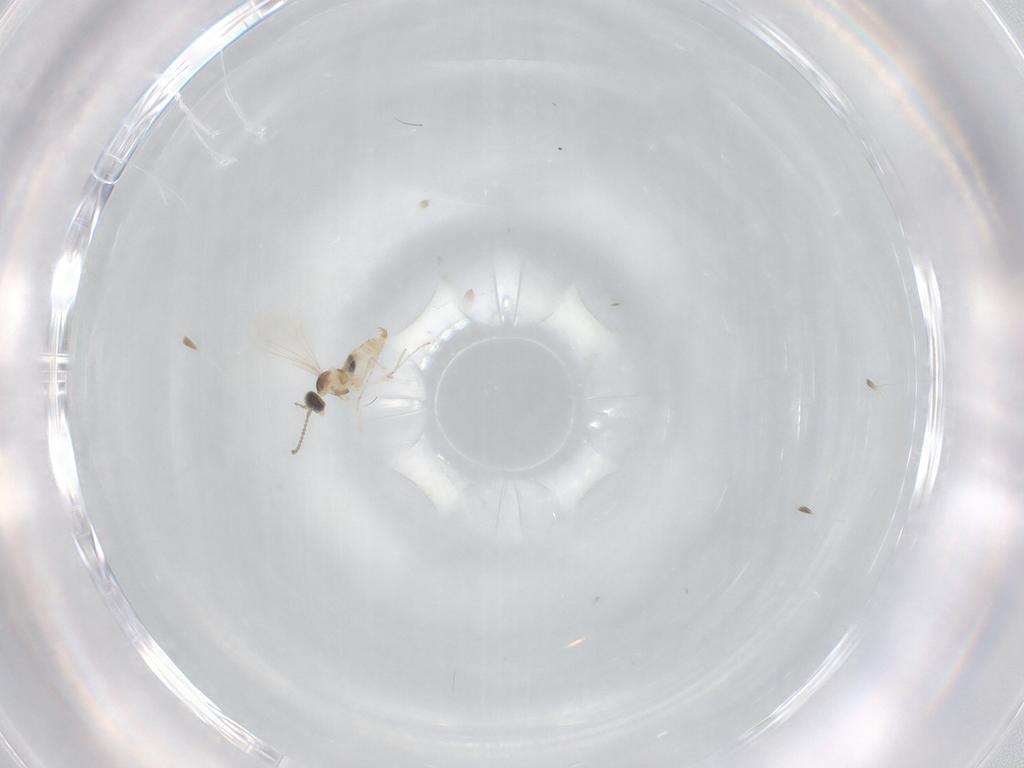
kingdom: Animalia
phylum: Arthropoda
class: Insecta
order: Diptera
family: Cecidomyiidae
